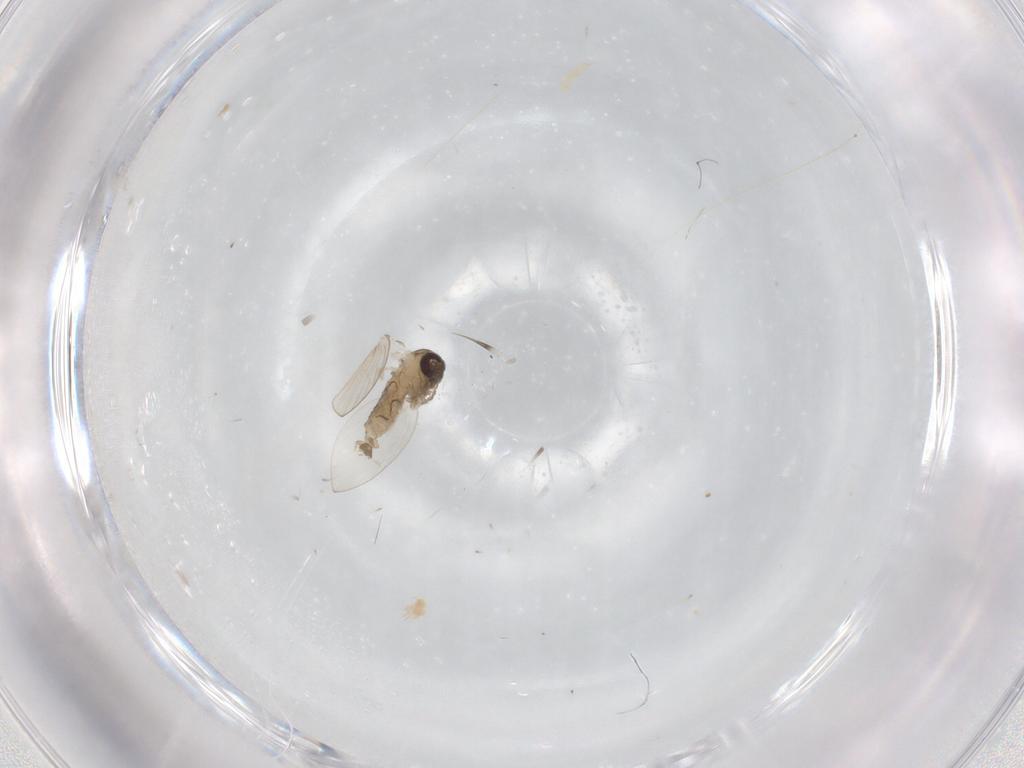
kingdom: Animalia
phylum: Arthropoda
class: Insecta
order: Diptera
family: Psychodidae
